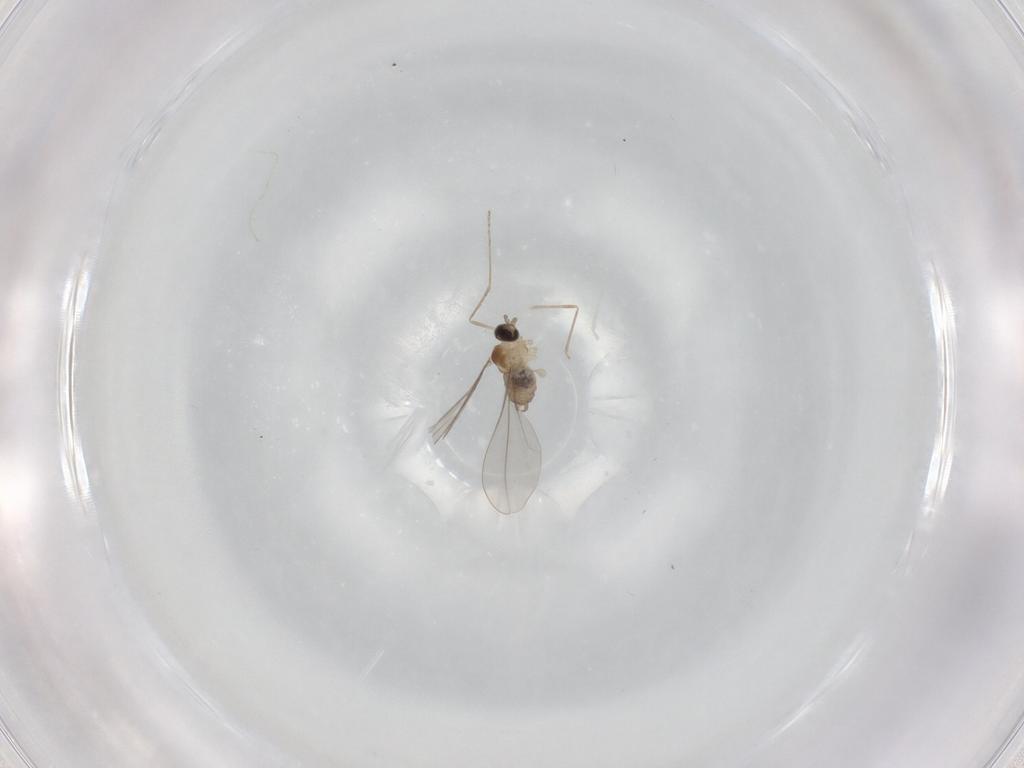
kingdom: Animalia
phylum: Arthropoda
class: Insecta
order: Diptera
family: Cecidomyiidae
